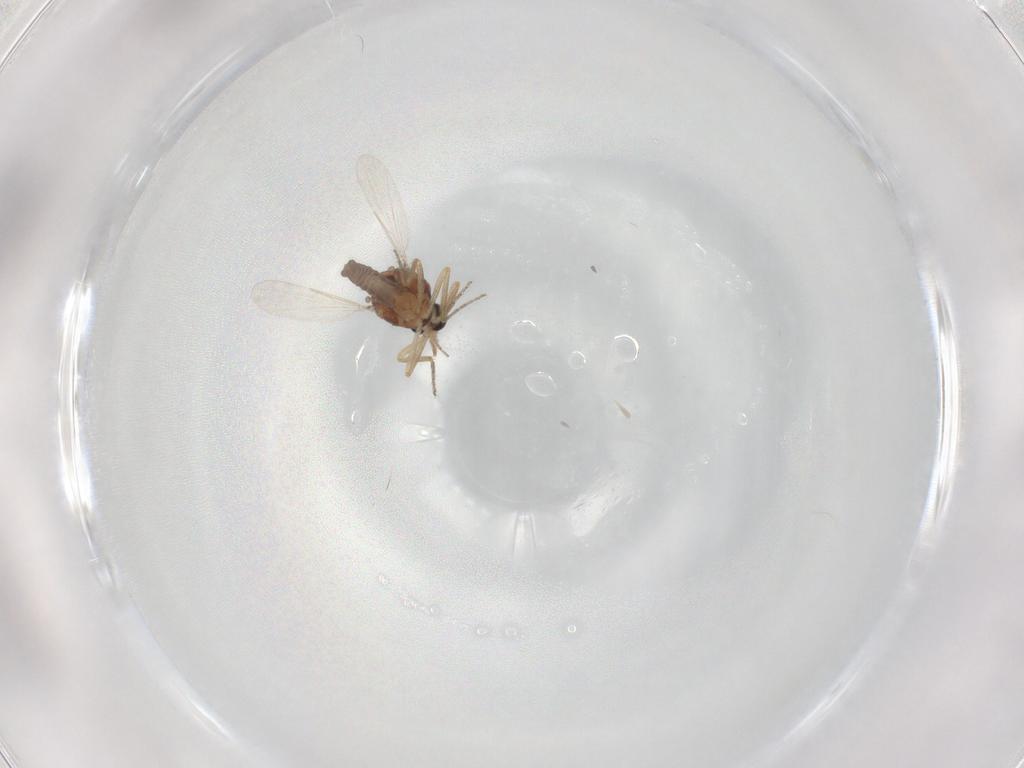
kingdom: Animalia
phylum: Arthropoda
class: Insecta
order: Diptera
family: Ceratopogonidae
